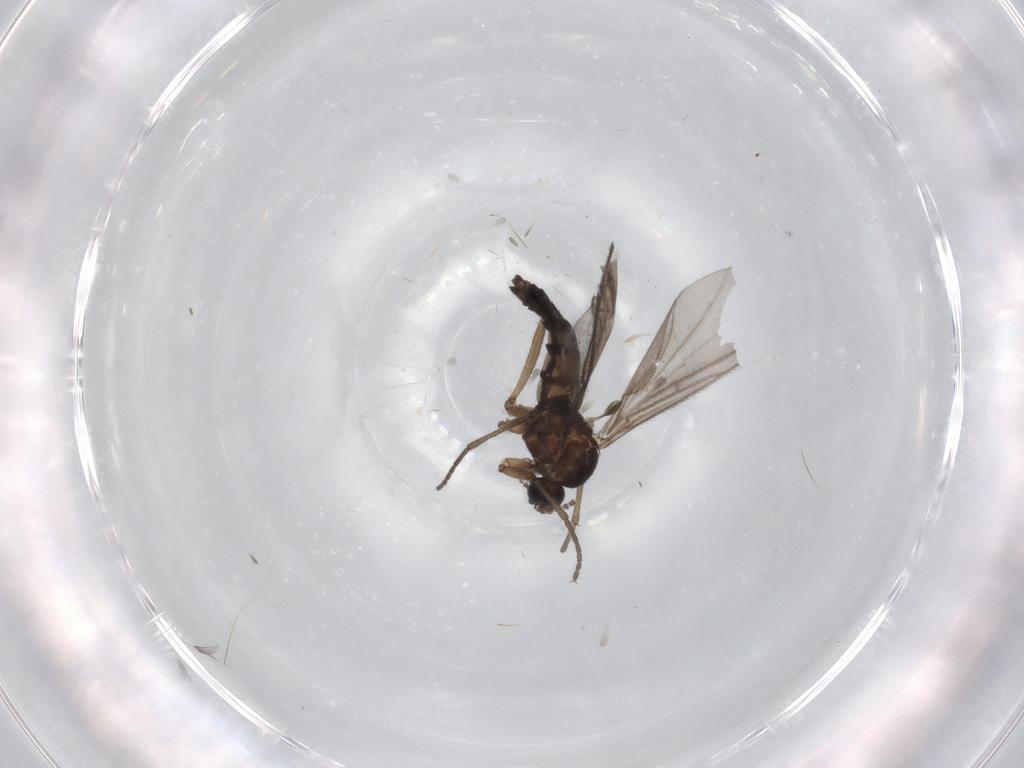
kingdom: Animalia
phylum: Arthropoda
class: Insecta
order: Diptera
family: Sciaridae
